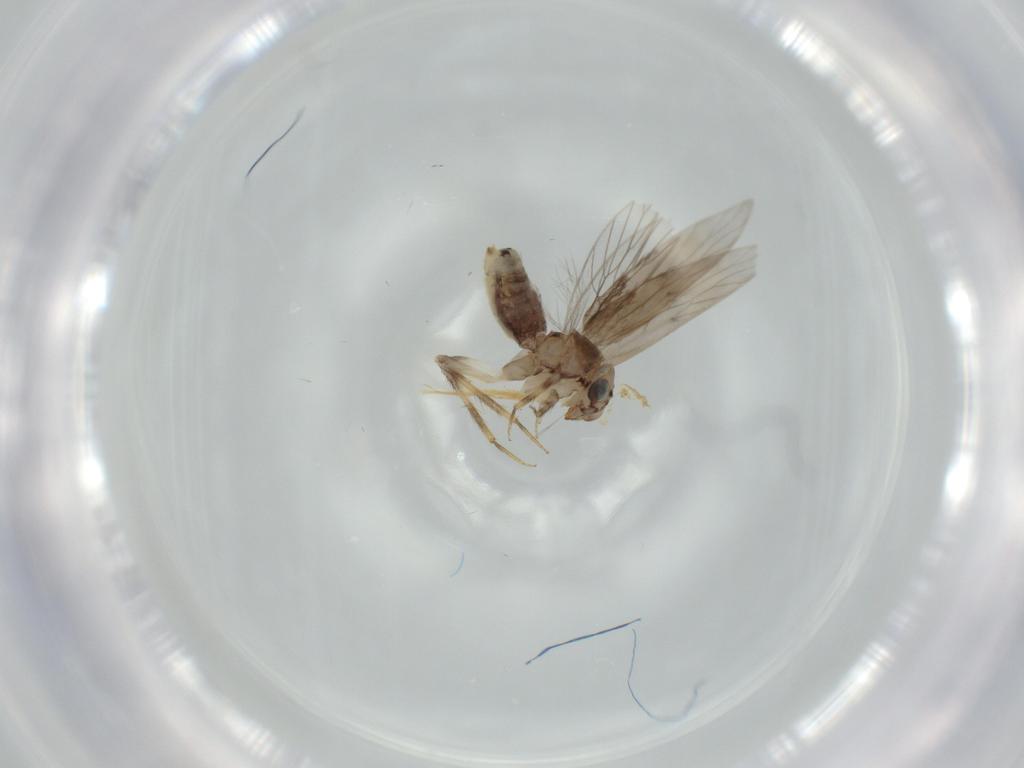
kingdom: Animalia
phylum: Arthropoda
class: Insecta
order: Psocodea
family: Lepidopsocidae
